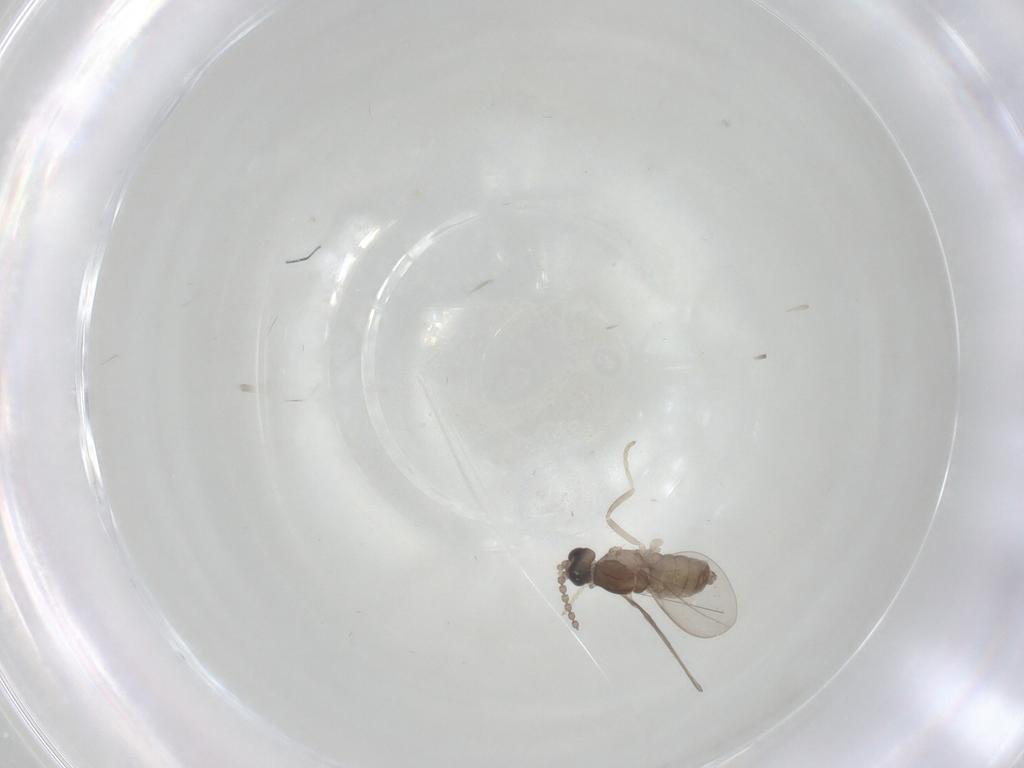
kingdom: Animalia
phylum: Arthropoda
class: Insecta
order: Diptera
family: Cecidomyiidae
